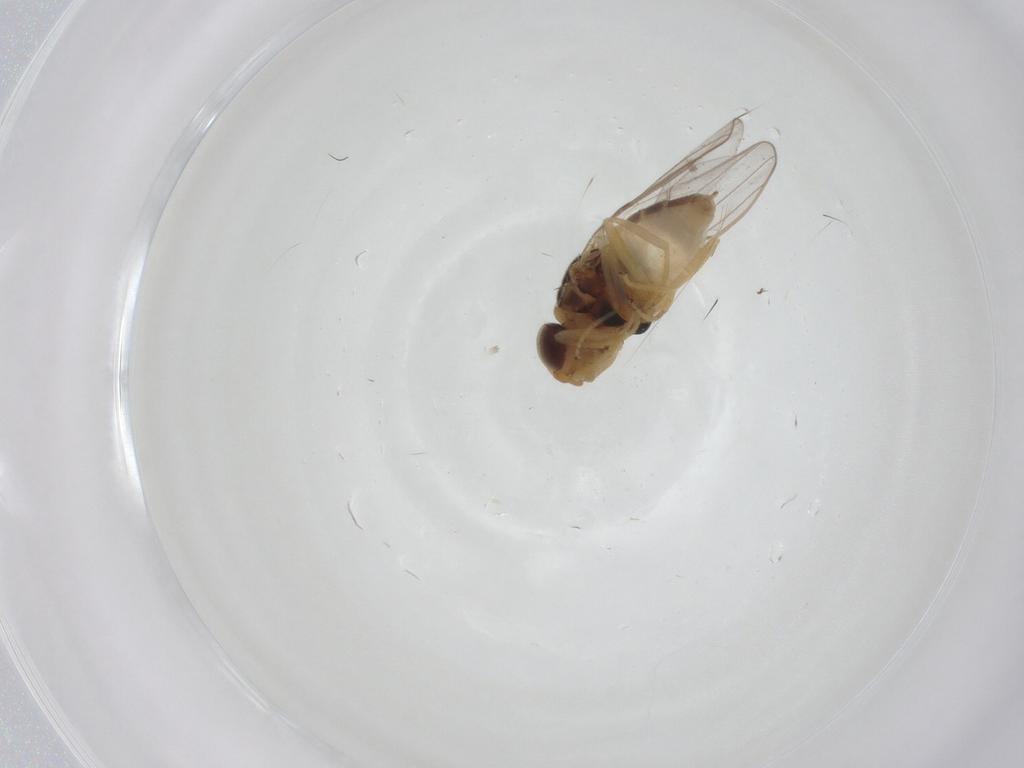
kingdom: Animalia
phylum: Arthropoda
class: Insecta
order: Diptera
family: Chloropidae
